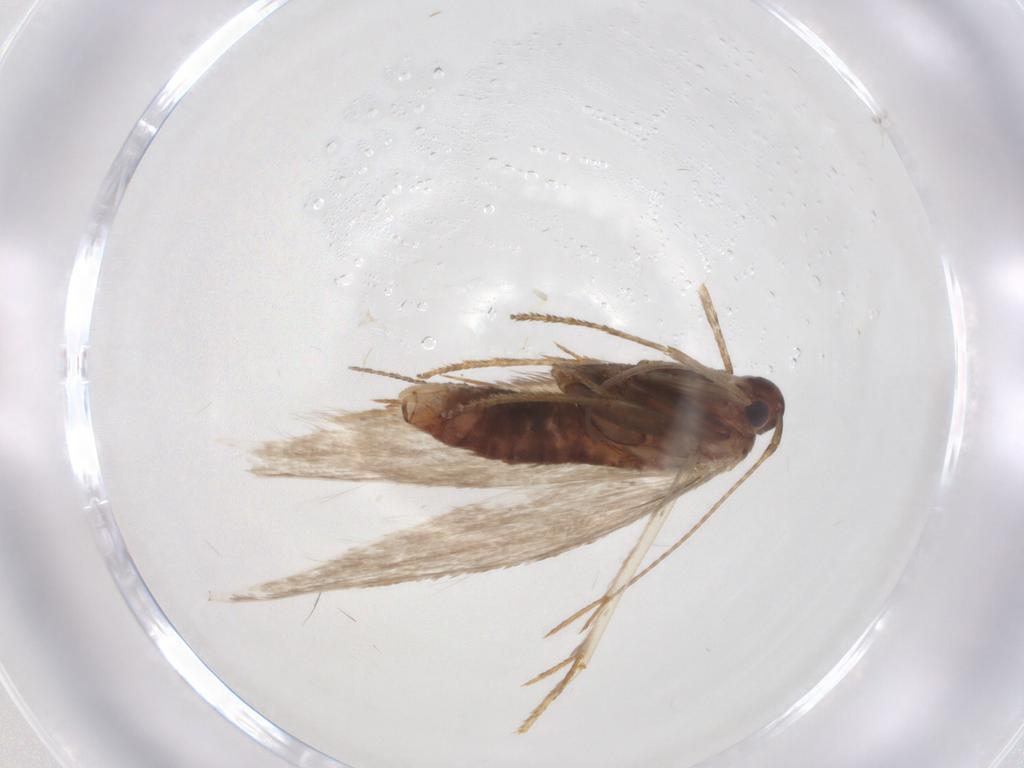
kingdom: Animalia
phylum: Arthropoda
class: Insecta
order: Lepidoptera
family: Erebidae
